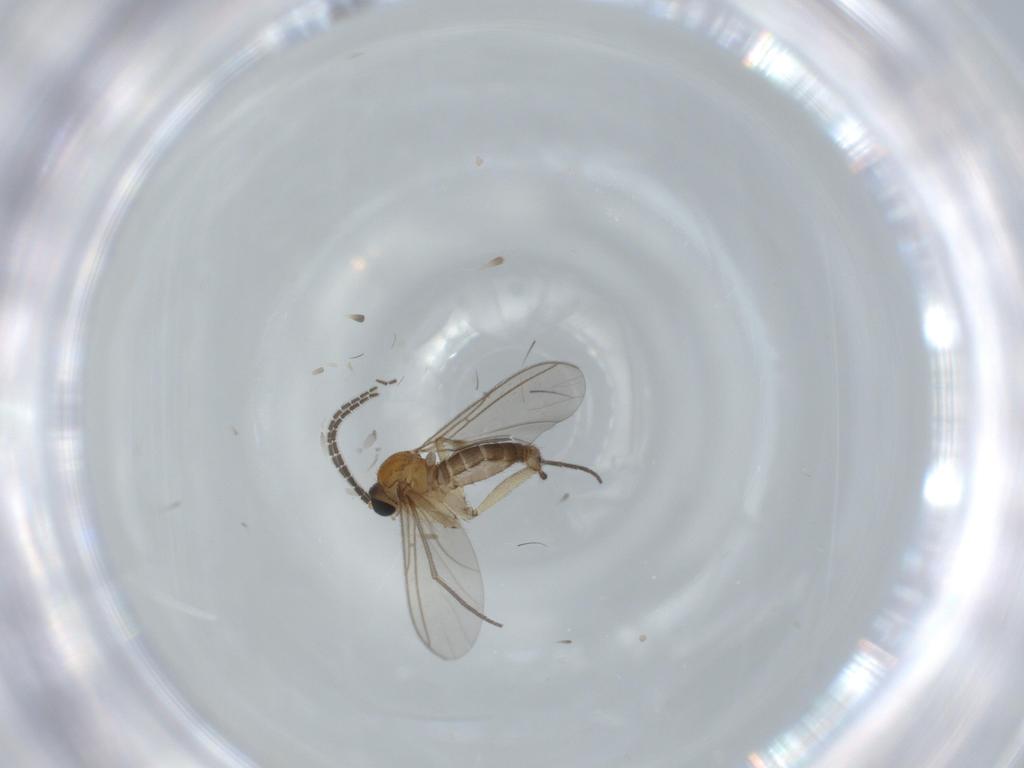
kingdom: Animalia
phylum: Arthropoda
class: Insecta
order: Diptera
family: Sciaridae
